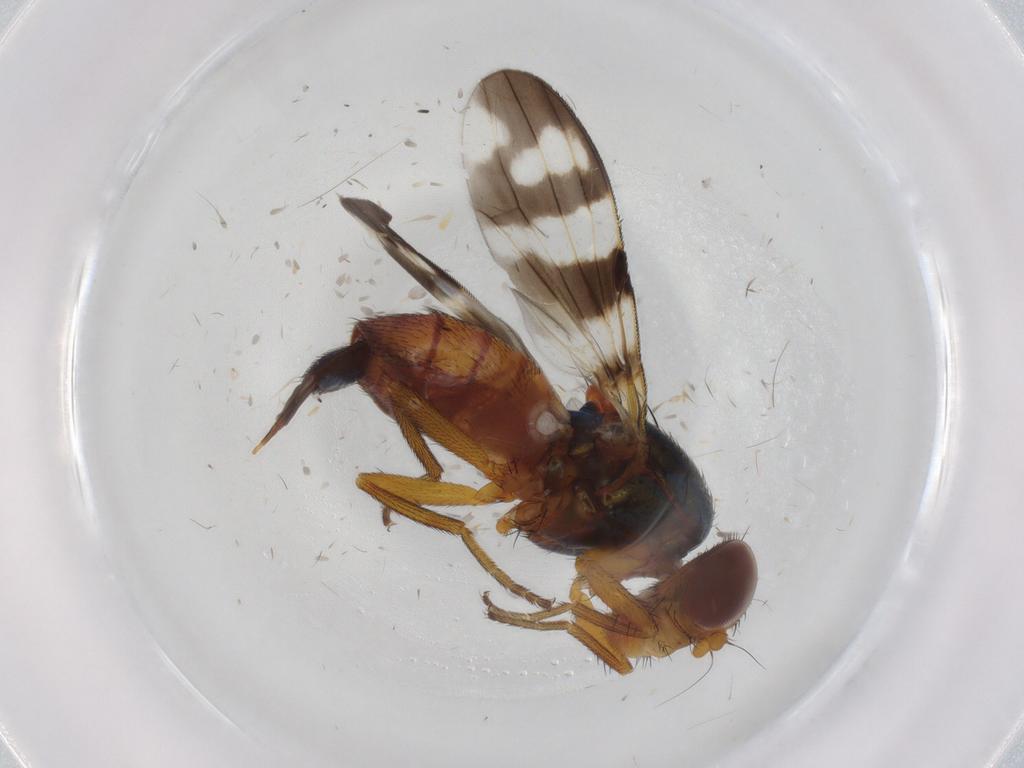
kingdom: Animalia
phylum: Arthropoda
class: Insecta
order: Diptera
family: Ulidiidae
